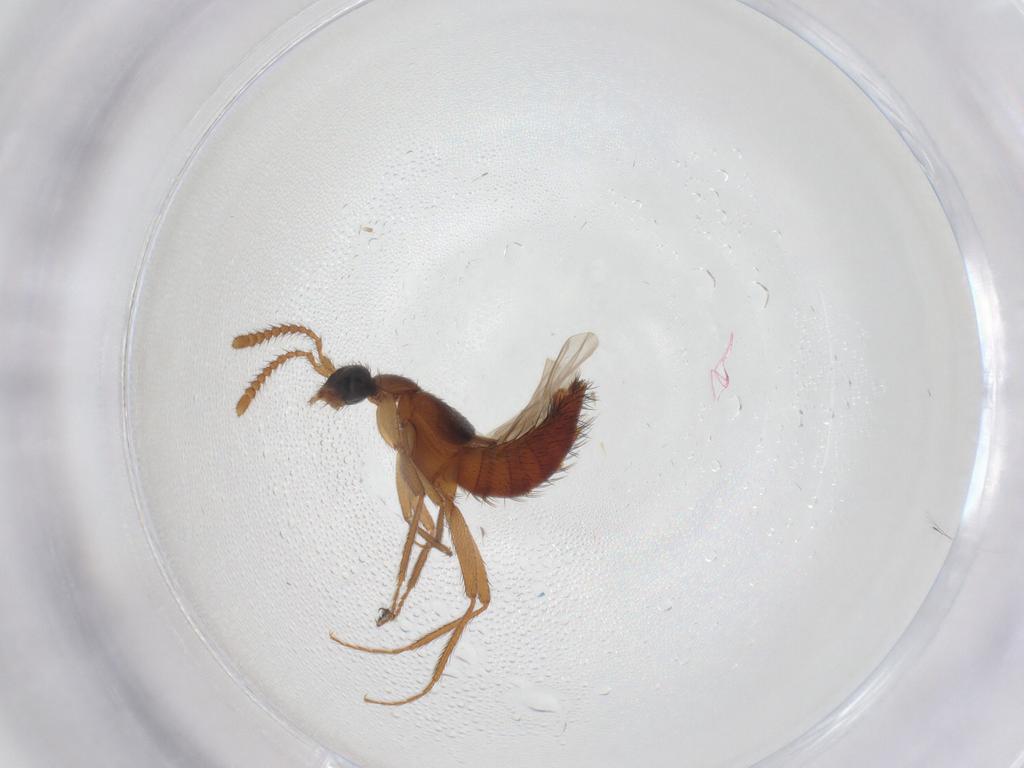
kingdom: Animalia
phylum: Arthropoda
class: Insecta
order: Coleoptera
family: Staphylinidae
